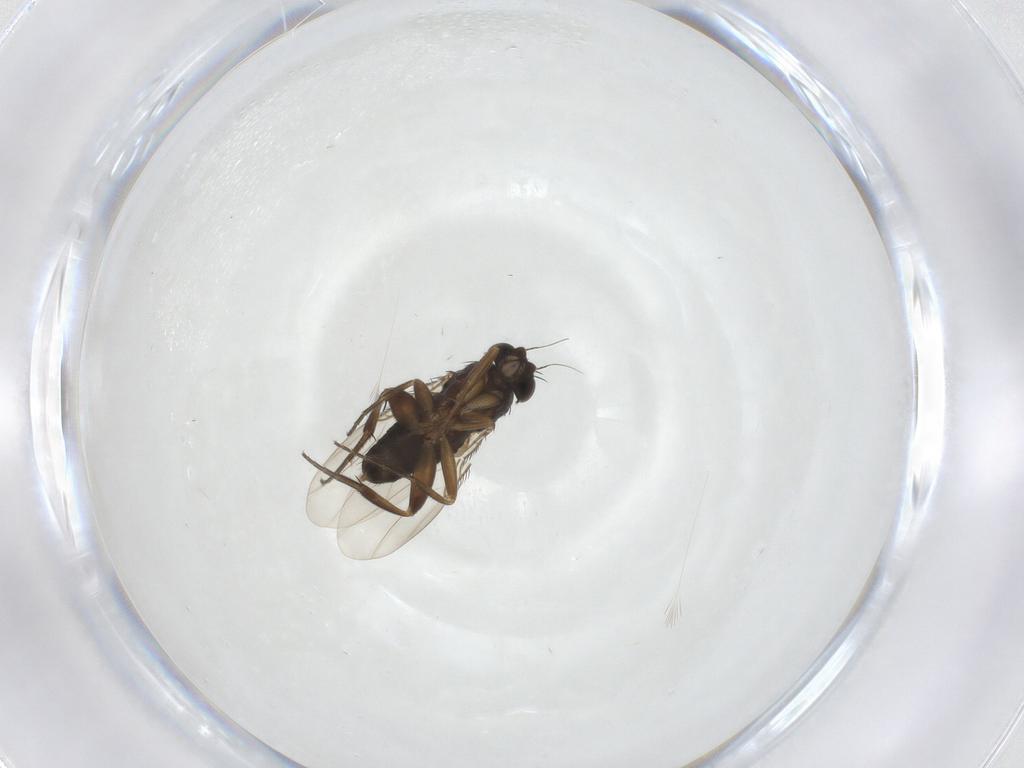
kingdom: Animalia
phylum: Arthropoda
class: Insecta
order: Diptera
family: Phoridae
